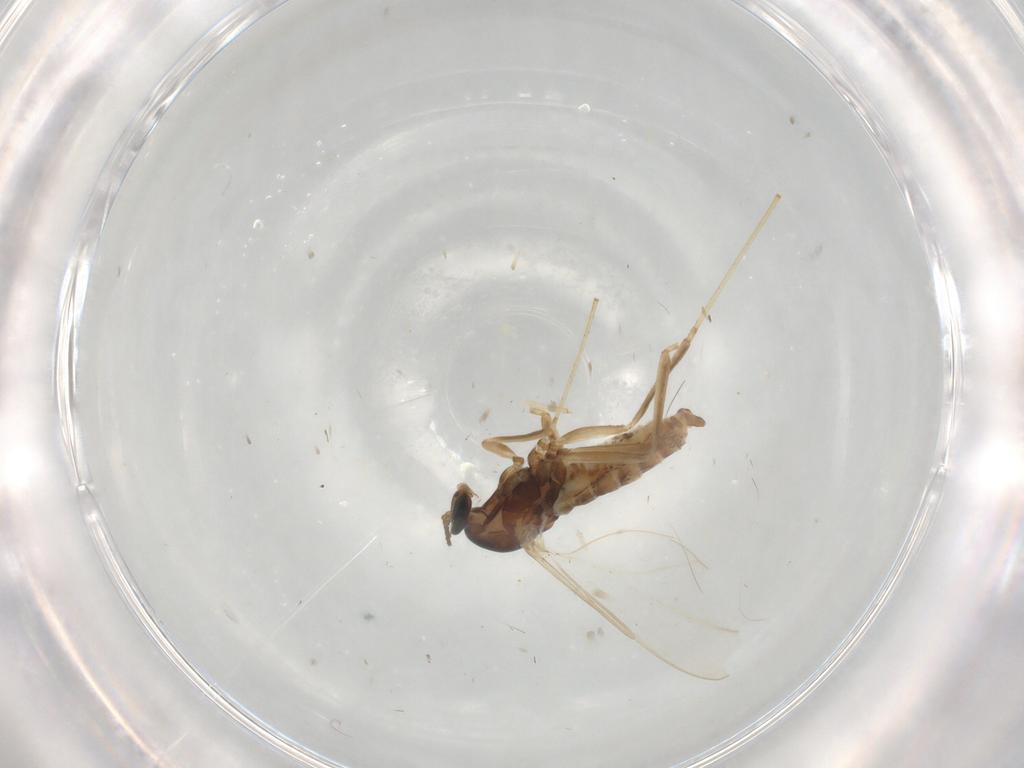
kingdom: Animalia
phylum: Arthropoda
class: Insecta
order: Diptera
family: Cecidomyiidae
